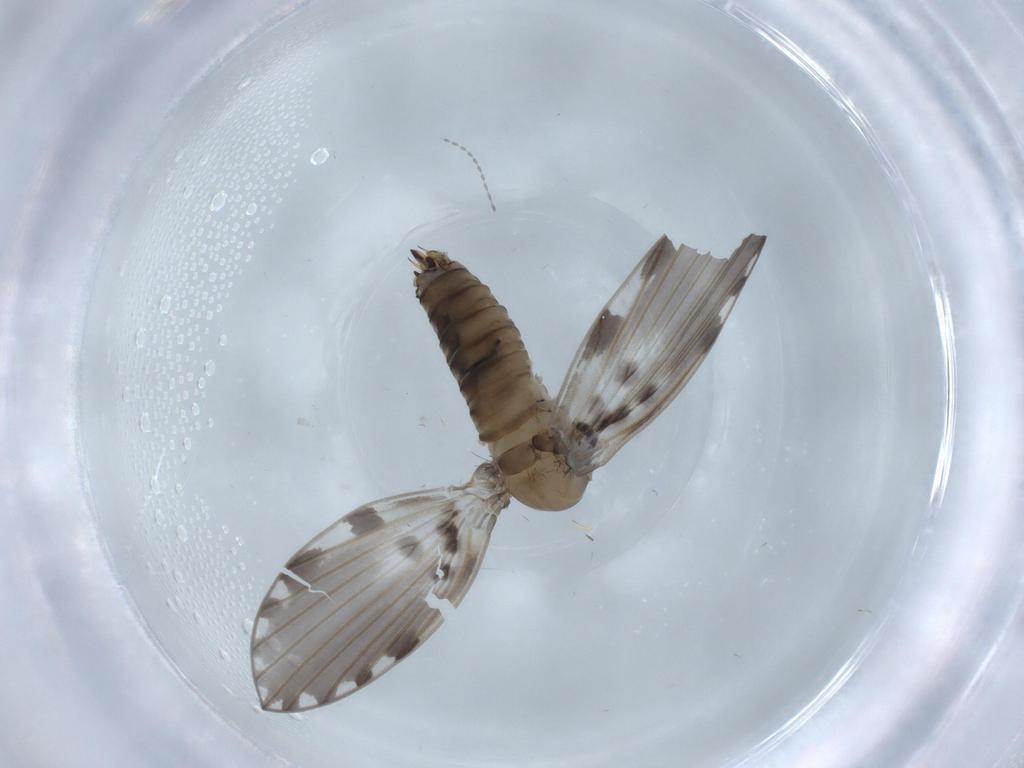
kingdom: Animalia
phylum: Arthropoda
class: Insecta
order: Diptera
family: Psychodidae
